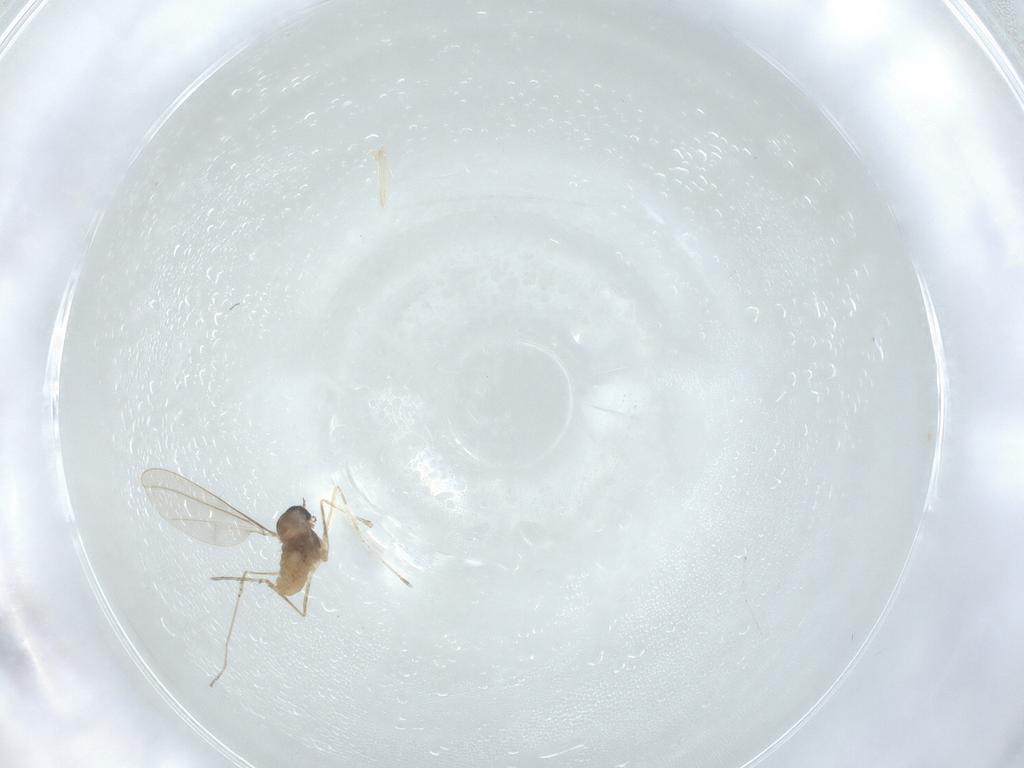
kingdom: Animalia
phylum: Arthropoda
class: Insecta
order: Diptera
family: Cecidomyiidae
